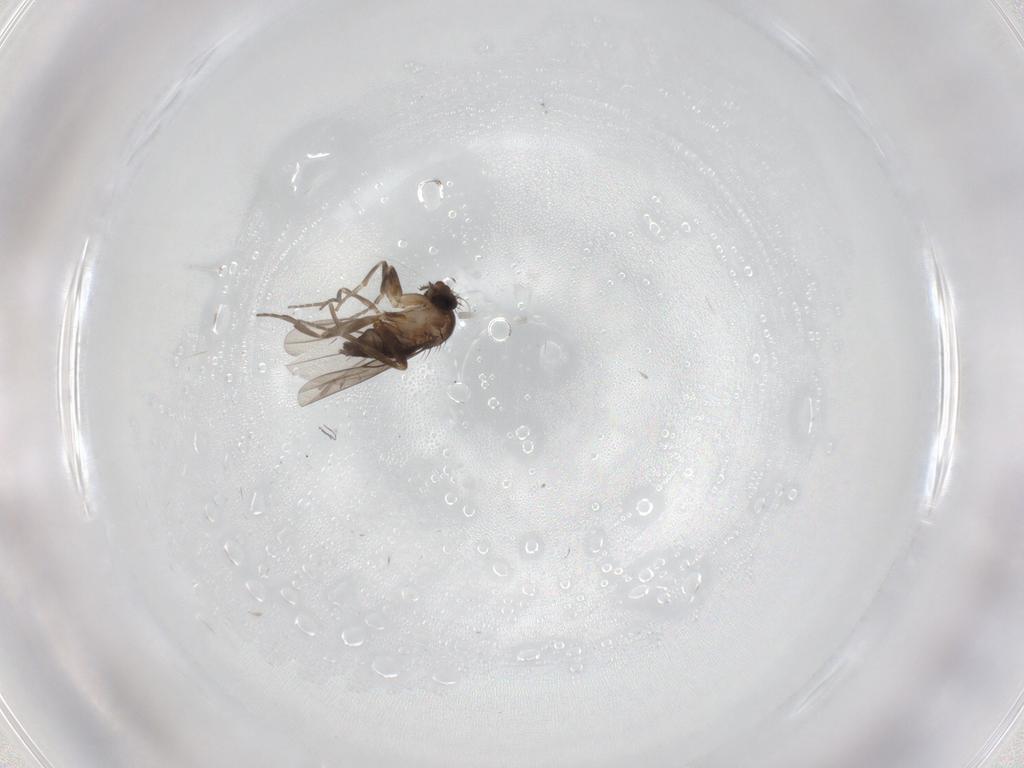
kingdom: Animalia
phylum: Arthropoda
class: Insecta
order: Diptera
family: Phoridae
